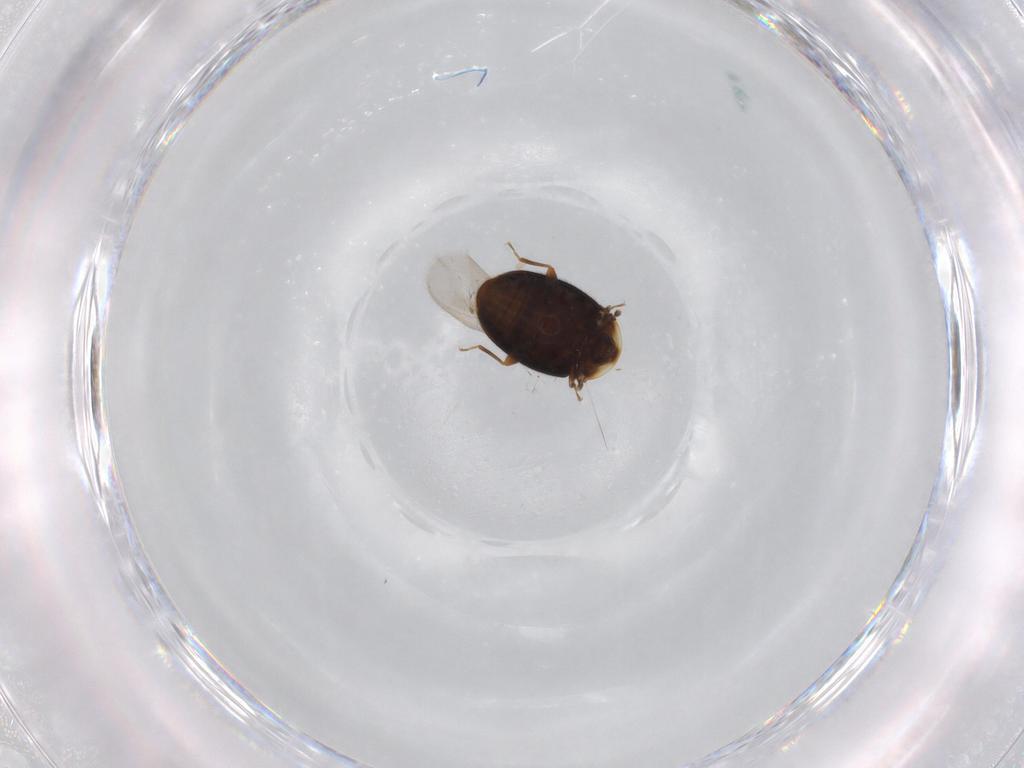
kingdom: Animalia
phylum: Arthropoda
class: Insecta
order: Coleoptera
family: Corylophidae
